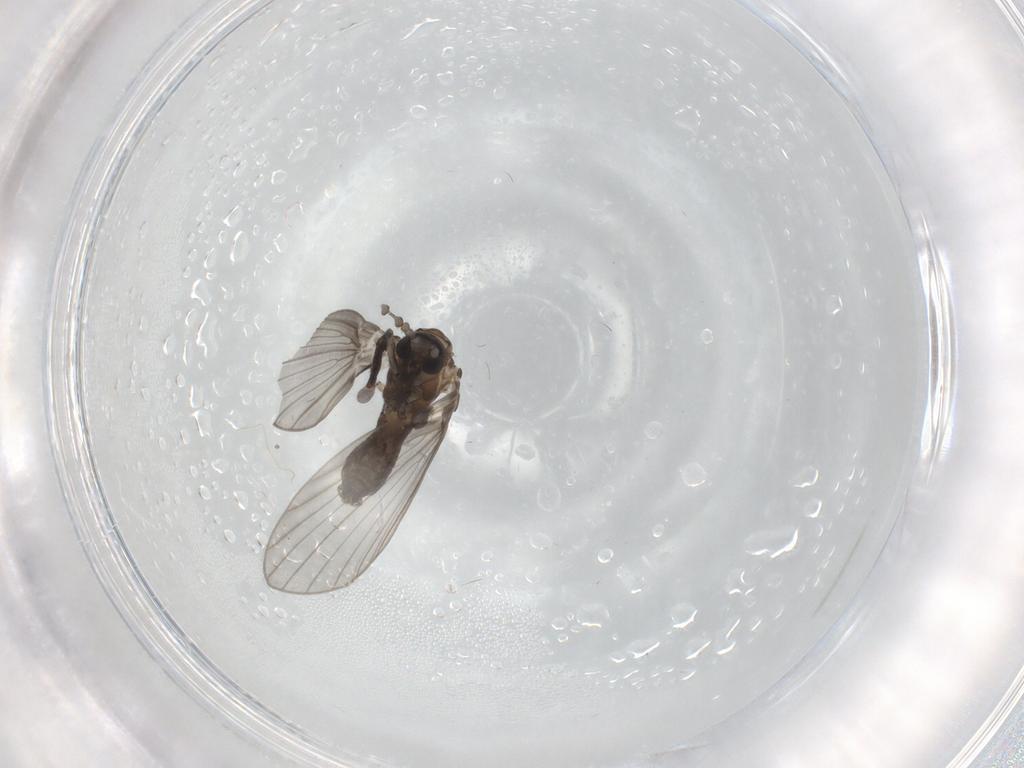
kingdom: Animalia
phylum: Arthropoda
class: Insecta
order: Diptera
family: Psychodidae
